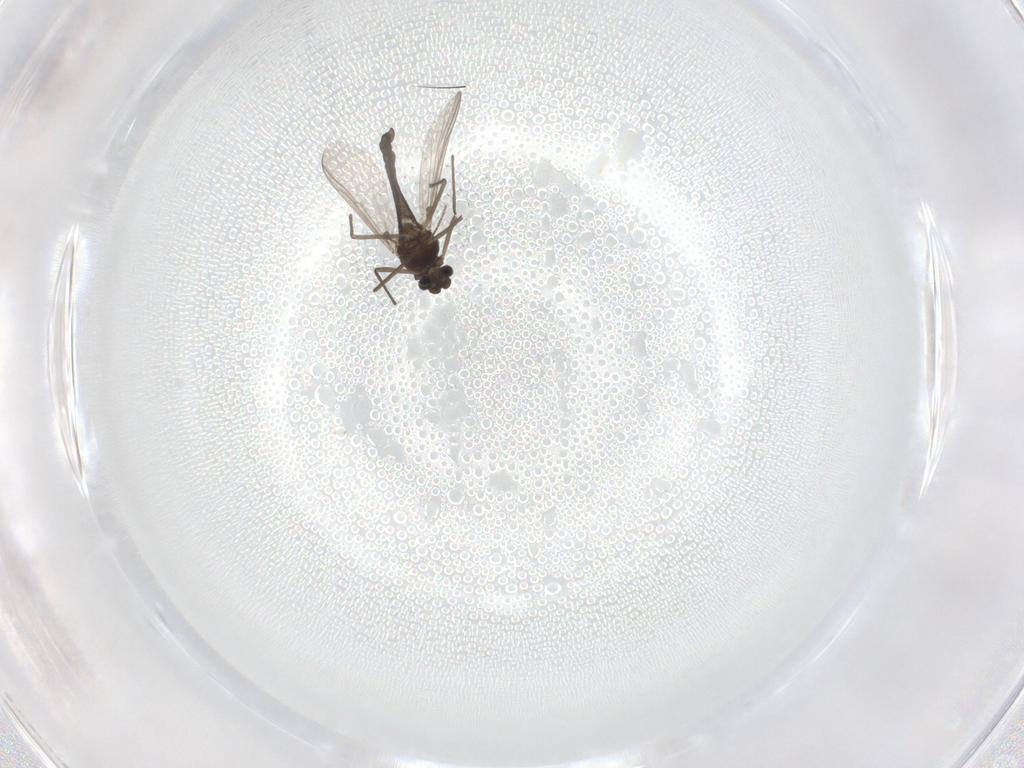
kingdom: Animalia
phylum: Arthropoda
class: Insecta
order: Diptera
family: Chironomidae
